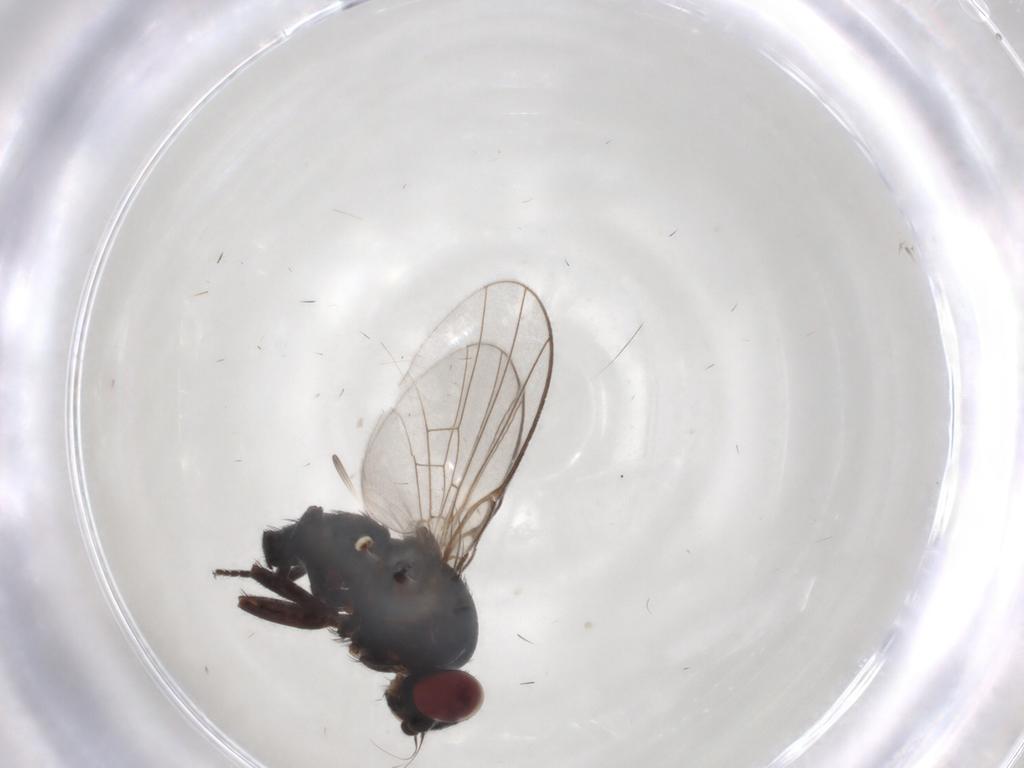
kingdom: Animalia
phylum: Arthropoda
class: Insecta
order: Diptera
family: Agromyzidae
